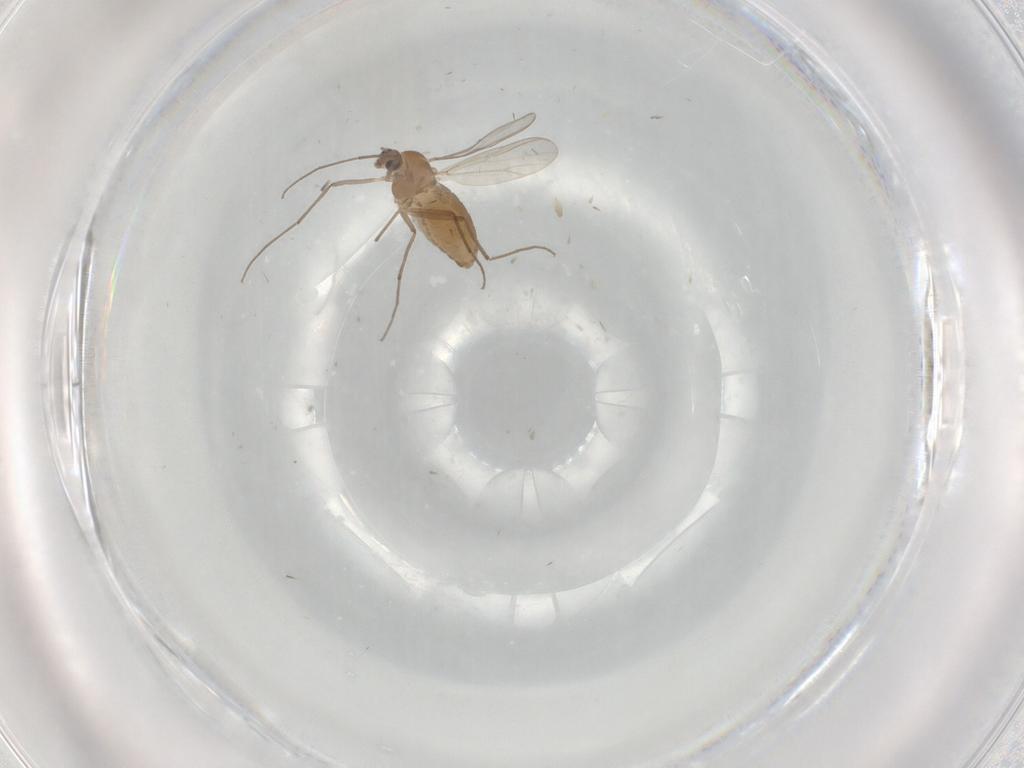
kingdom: Animalia
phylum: Arthropoda
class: Insecta
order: Diptera
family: Chironomidae
